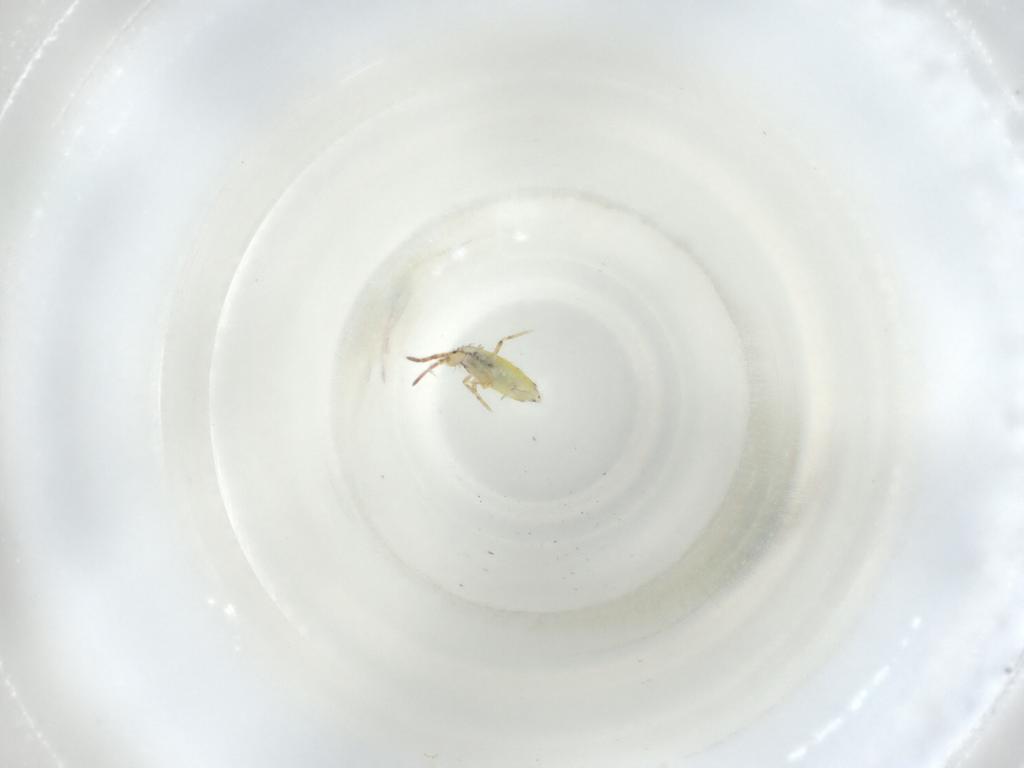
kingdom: Animalia
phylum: Arthropoda
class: Collembola
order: Entomobryomorpha
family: Entomobryidae
